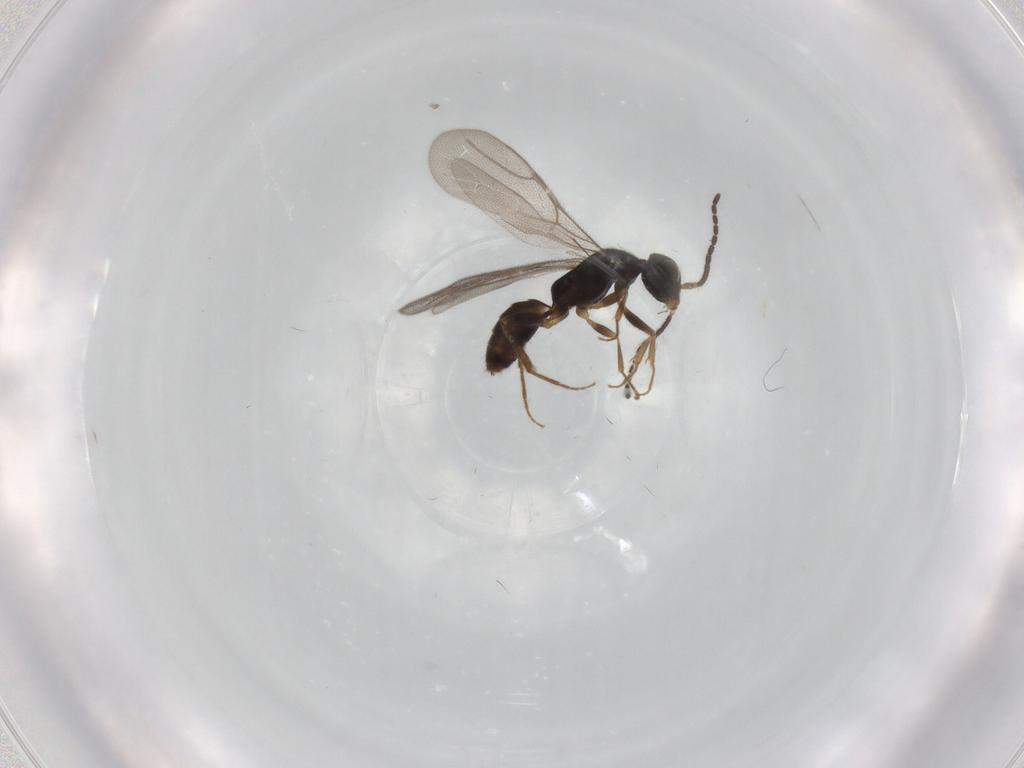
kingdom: Animalia
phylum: Arthropoda
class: Insecta
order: Hymenoptera
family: Bethylidae
